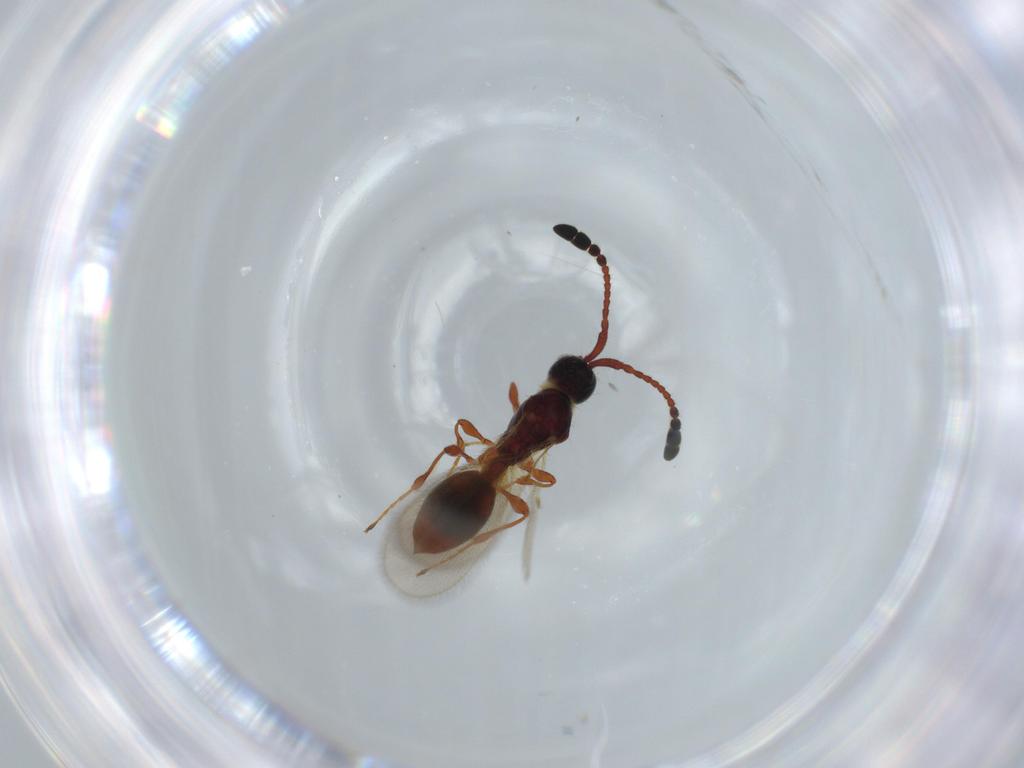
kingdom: Animalia
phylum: Arthropoda
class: Insecta
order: Hymenoptera
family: Diapriidae
